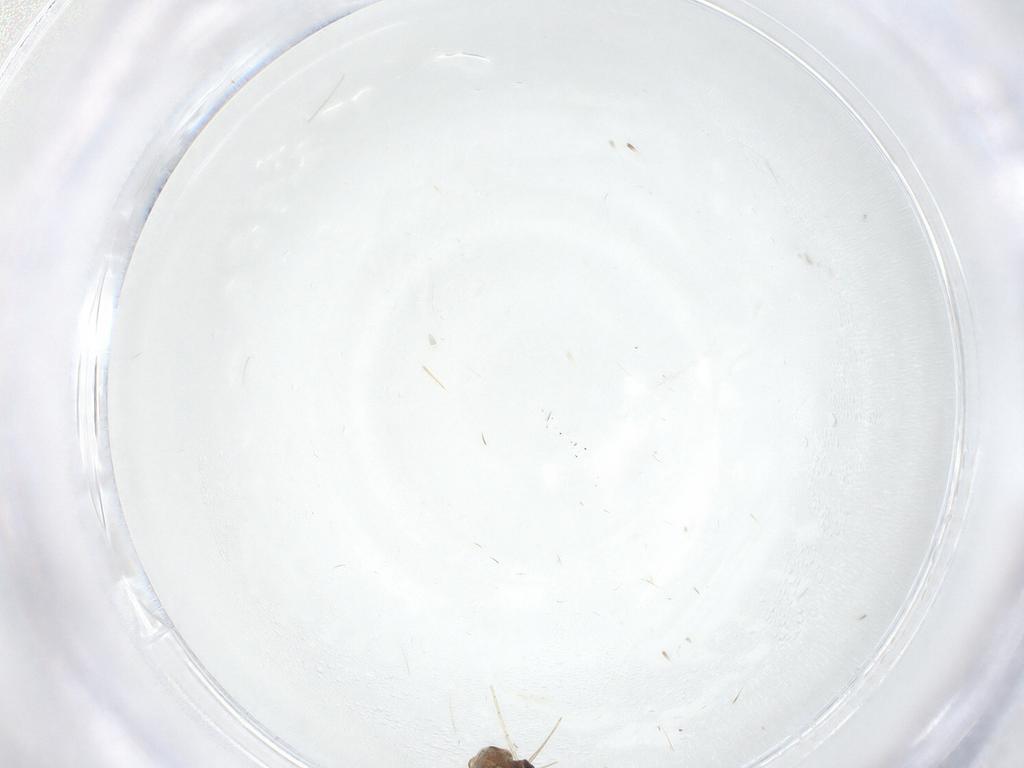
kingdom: Animalia
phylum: Arthropoda
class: Insecta
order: Diptera
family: Chironomidae
